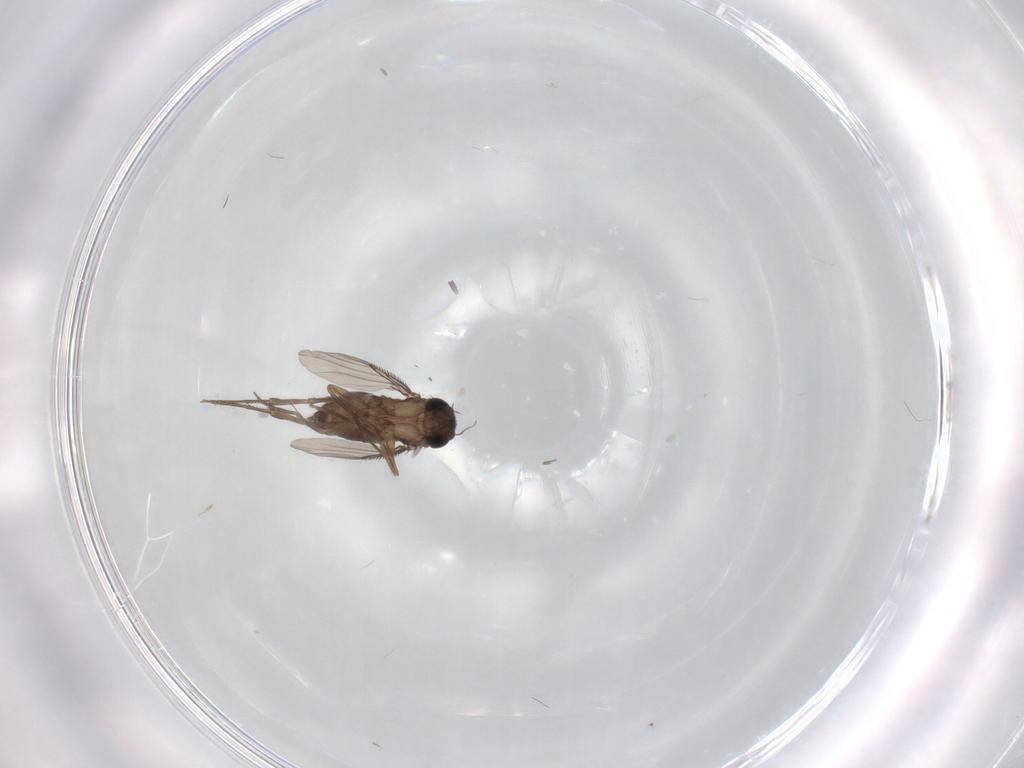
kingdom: Animalia
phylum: Arthropoda
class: Insecta
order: Diptera
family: Phoridae
